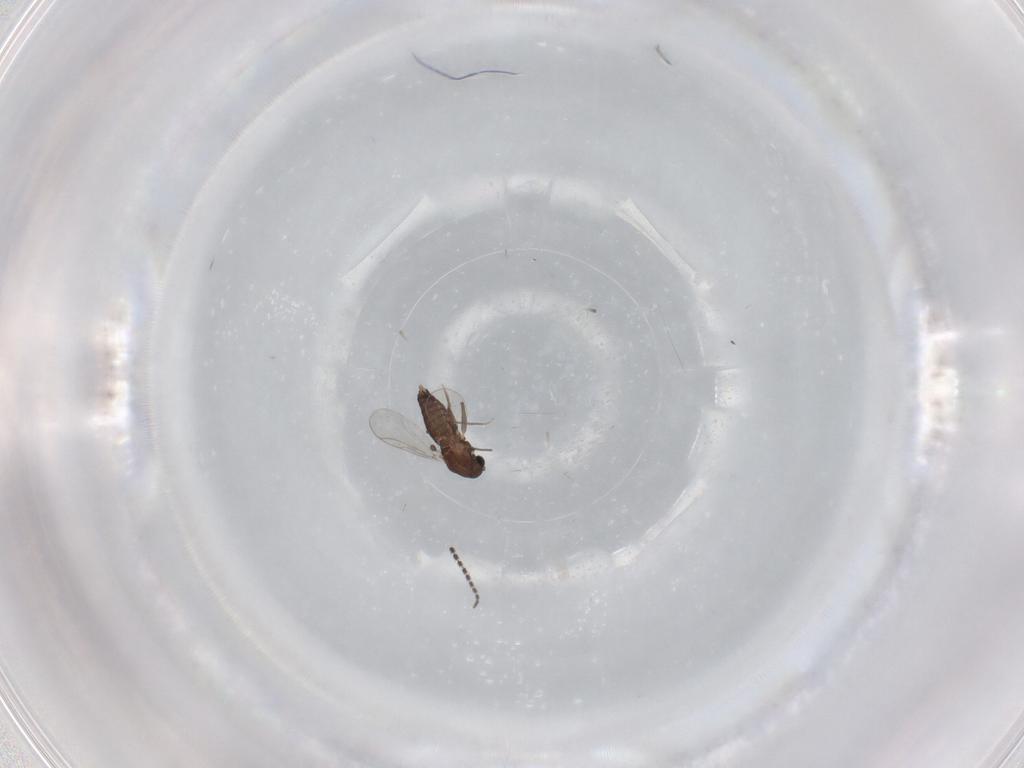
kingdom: Animalia
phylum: Arthropoda
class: Insecta
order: Diptera
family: Chironomidae
